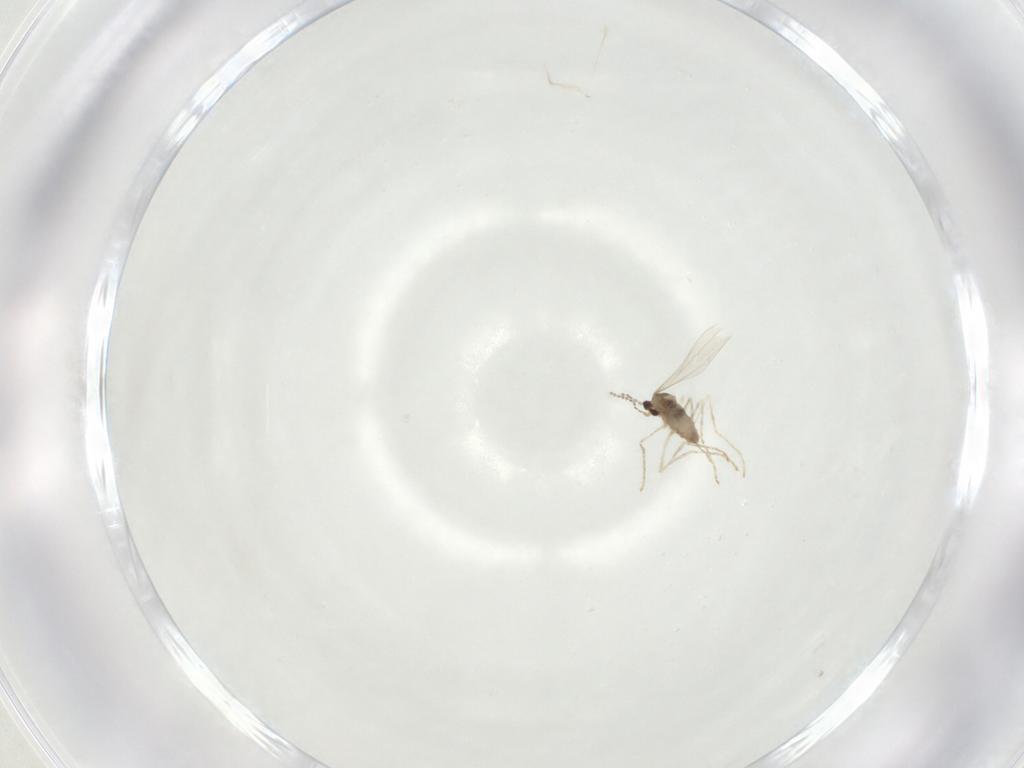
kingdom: Animalia
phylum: Arthropoda
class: Insecta
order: Diptera
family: Cecidomyiidae
